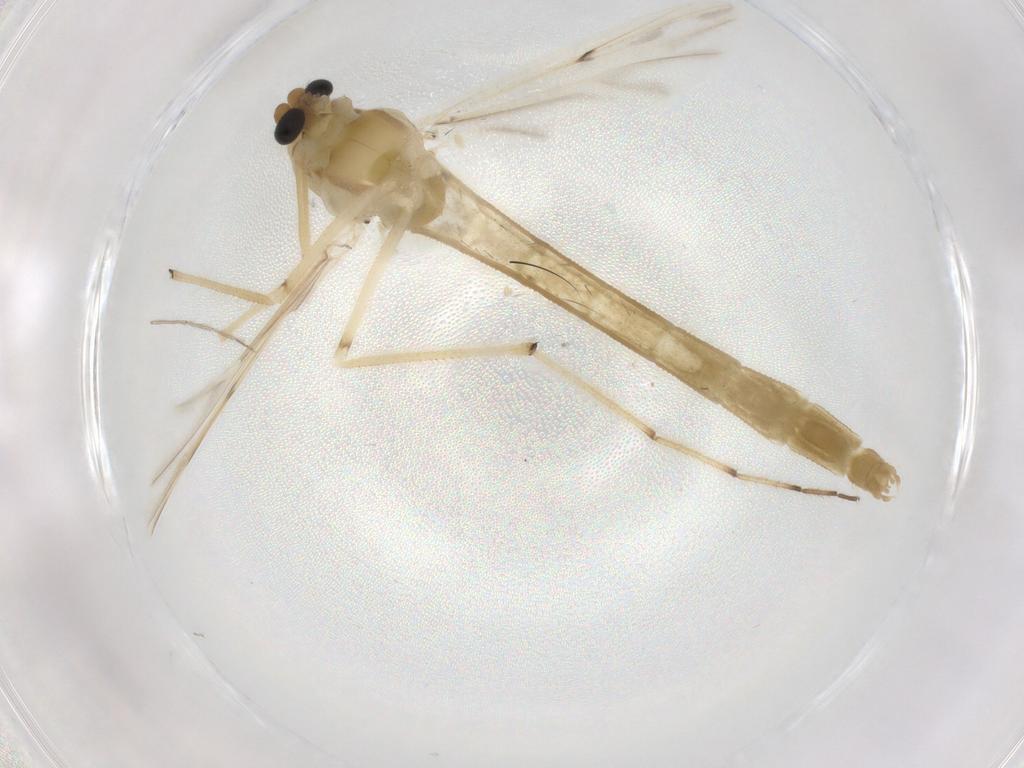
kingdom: Animalia
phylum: Arthropoda
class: Insecta
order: Diptera
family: Chironomidae
